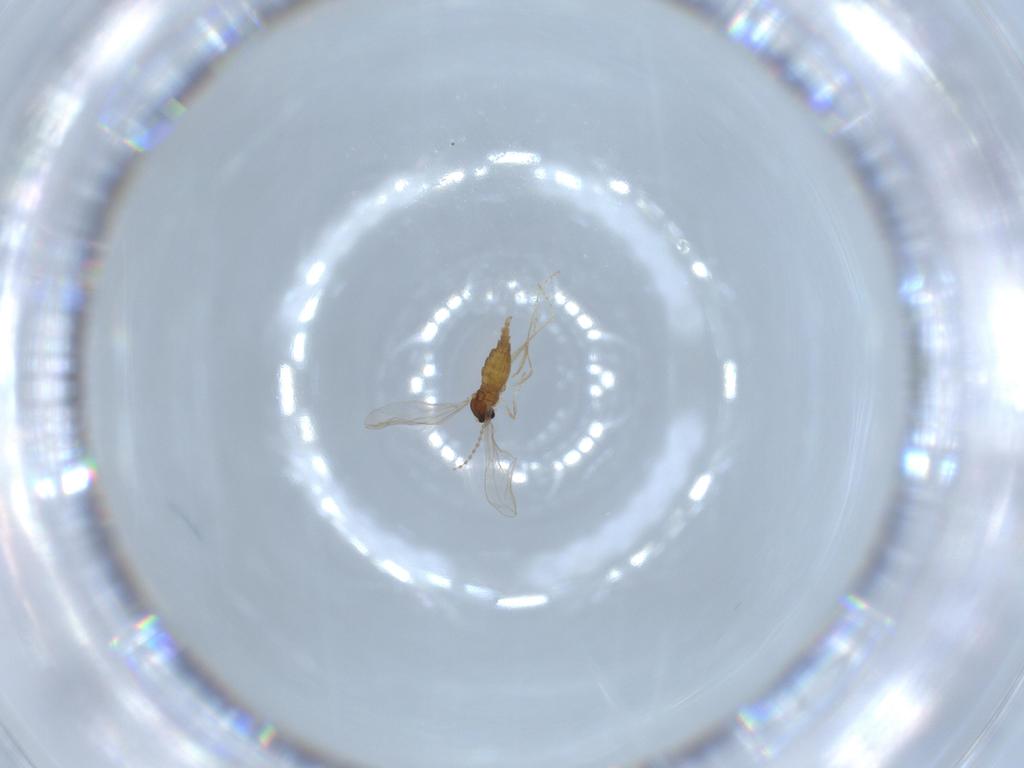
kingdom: Animalia
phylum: Arthropoda
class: Insecta
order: Diptera
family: Cecidomyiidae
